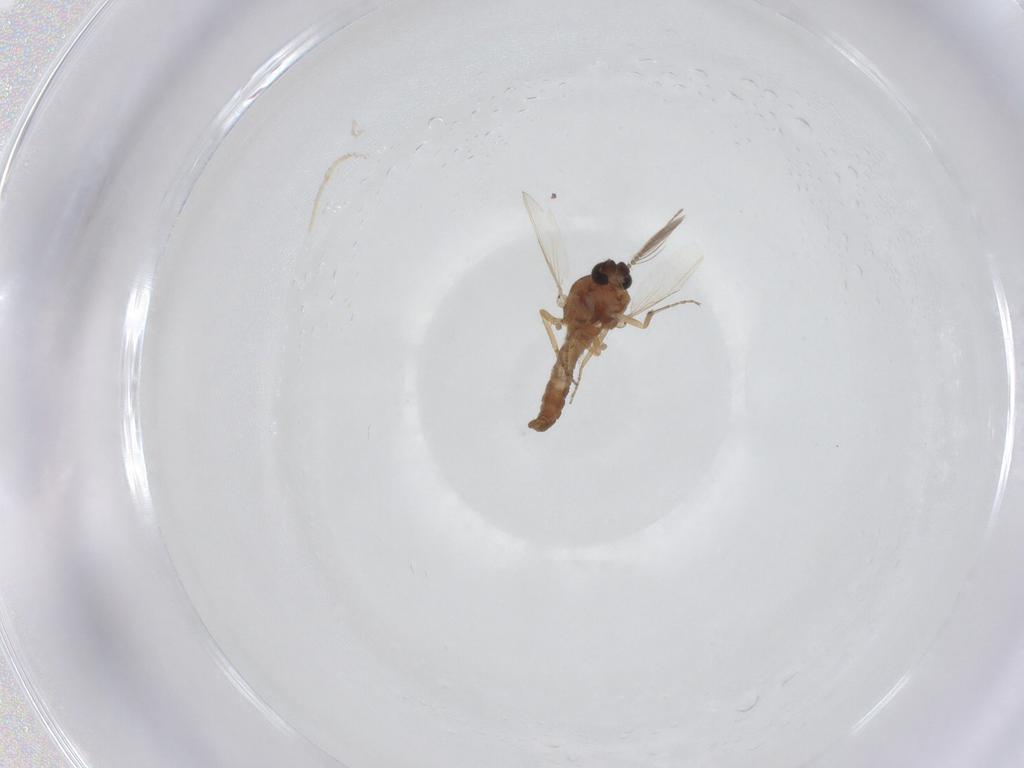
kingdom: Animalia
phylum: Arthropoda
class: Insecta
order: Diptera
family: Ceratopogonidae
